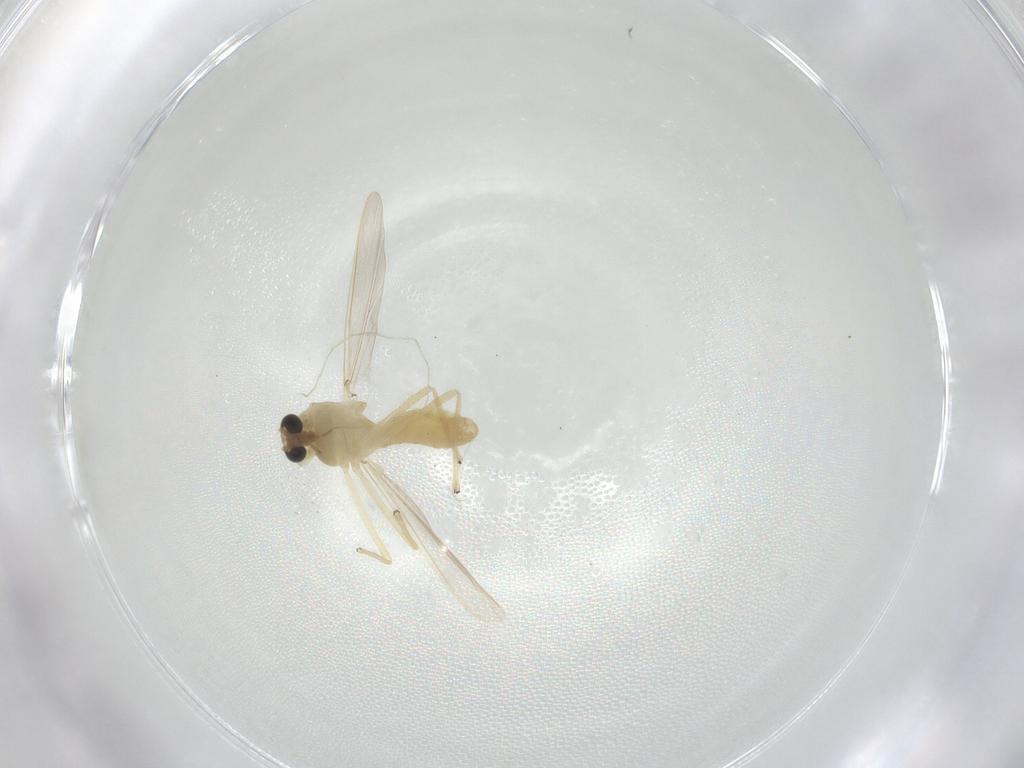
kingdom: Animalia
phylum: Arthropoda
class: Insecta
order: Diptera
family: Chironomidae
